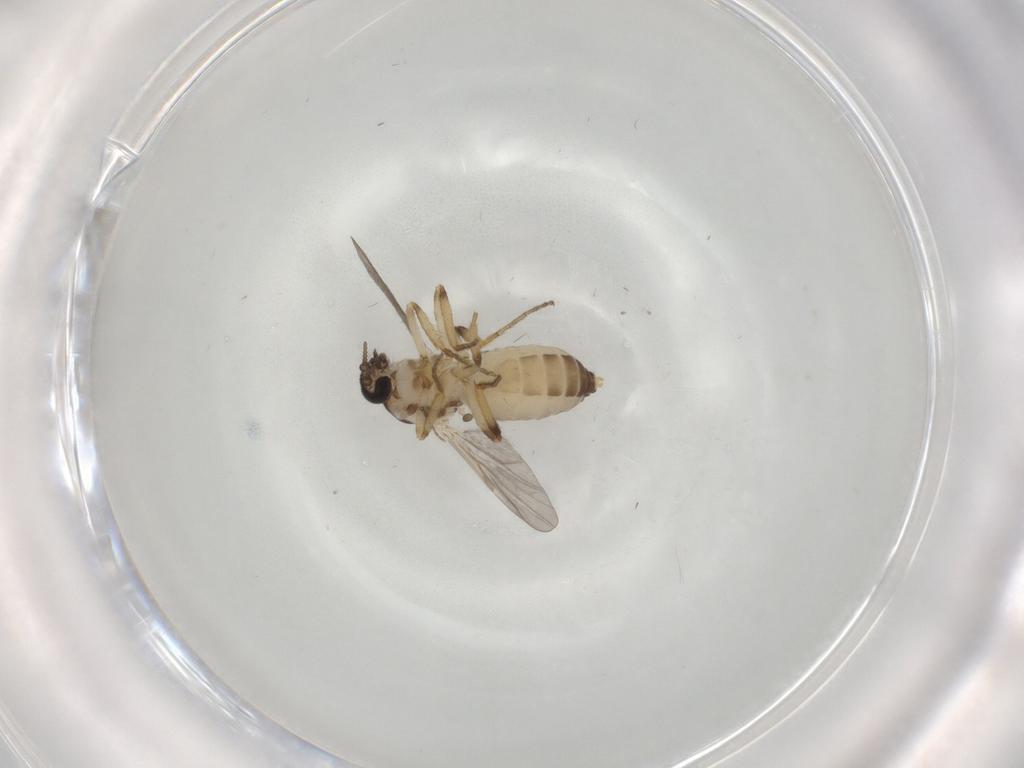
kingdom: Animalia
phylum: Arthropoda
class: Insecta
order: Diptera
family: Ceratopogonidae
